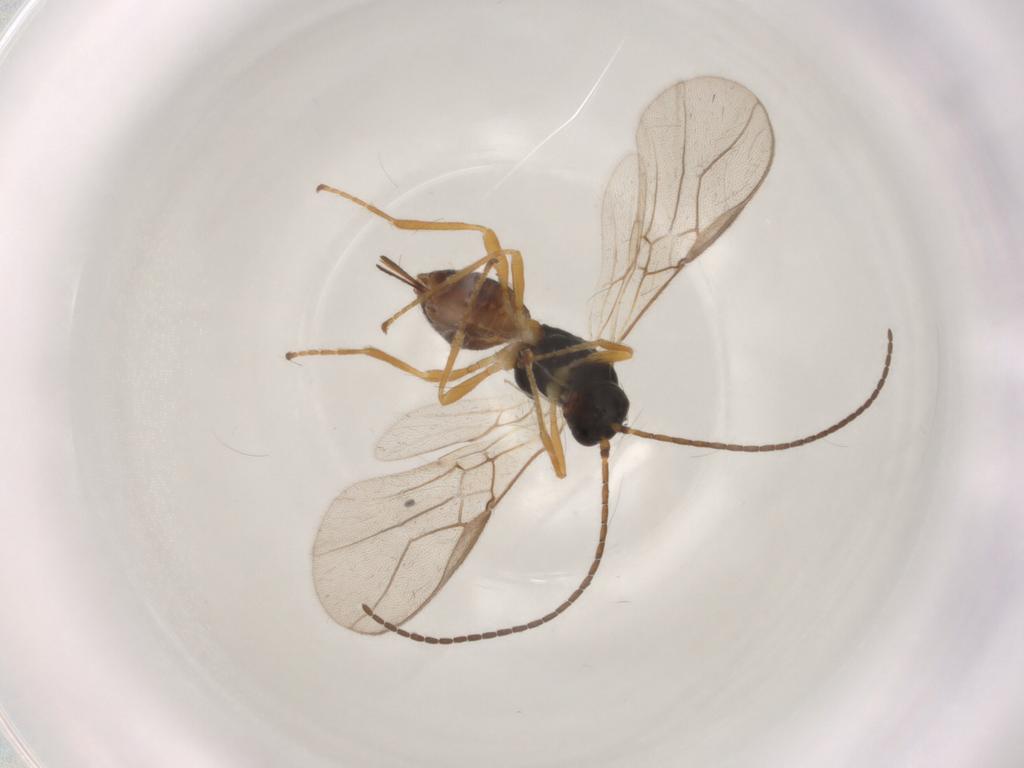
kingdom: Animalia
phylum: Arthropoda
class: Insecta
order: Hymenoptera
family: Braconidae
